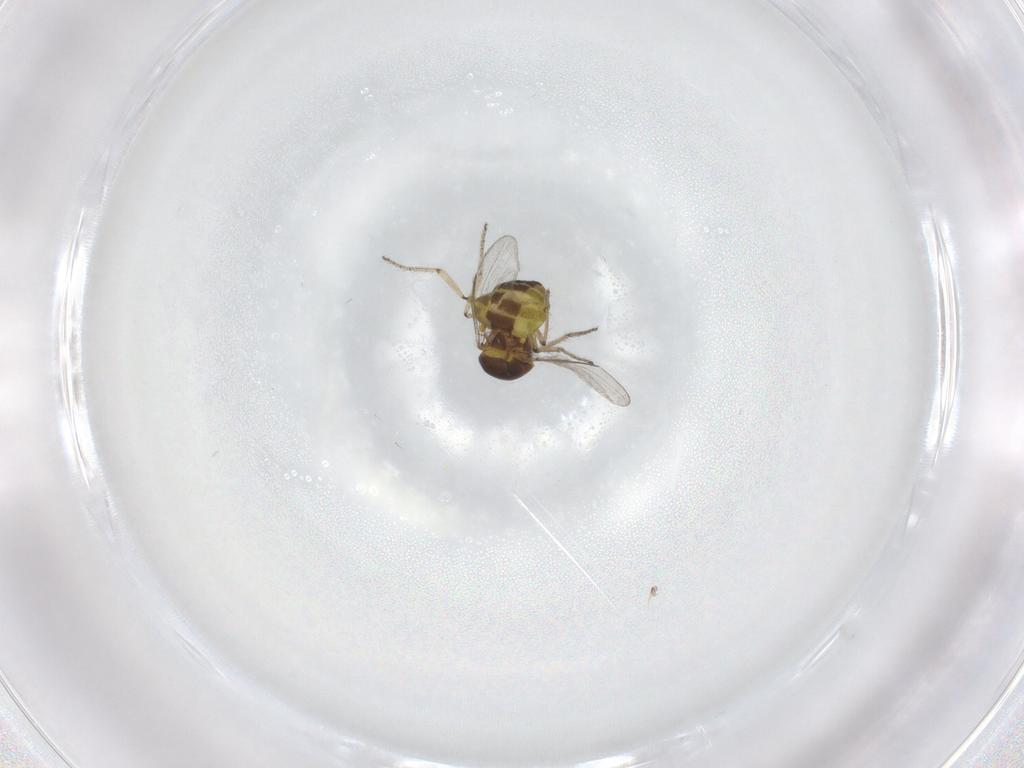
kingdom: Animalia
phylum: Arthropoda
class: Insecta
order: Diptera
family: Ceratopogonidae
